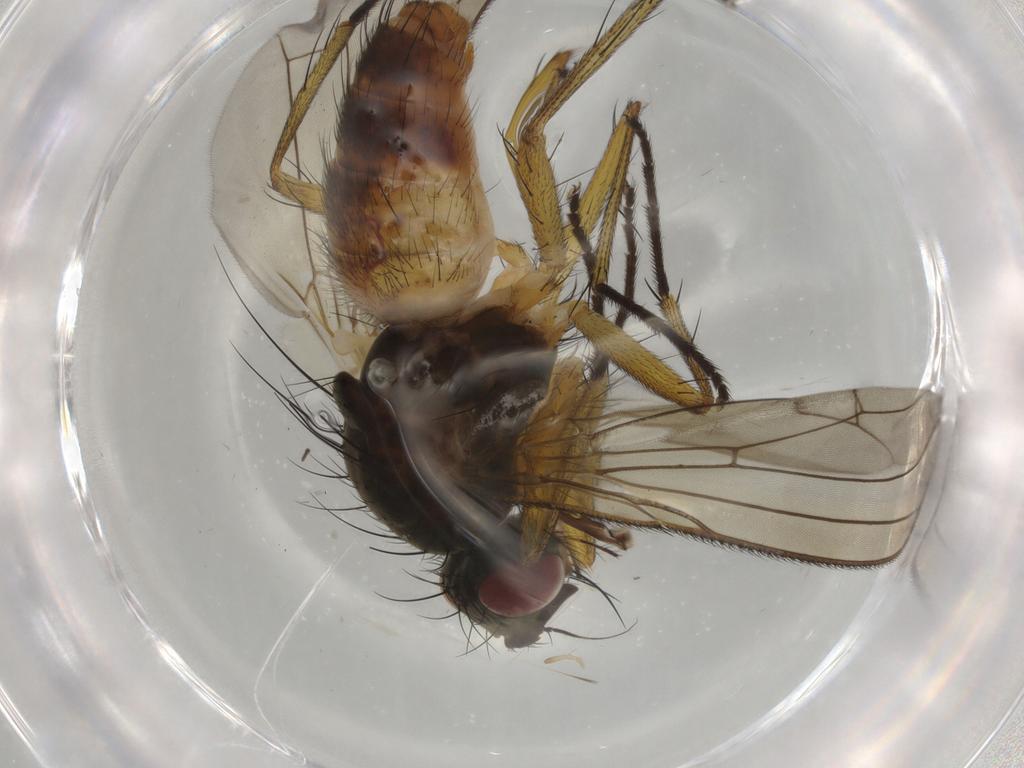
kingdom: Animalia
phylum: Arthropoda
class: Insecta
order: Diptera
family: Muscidae
